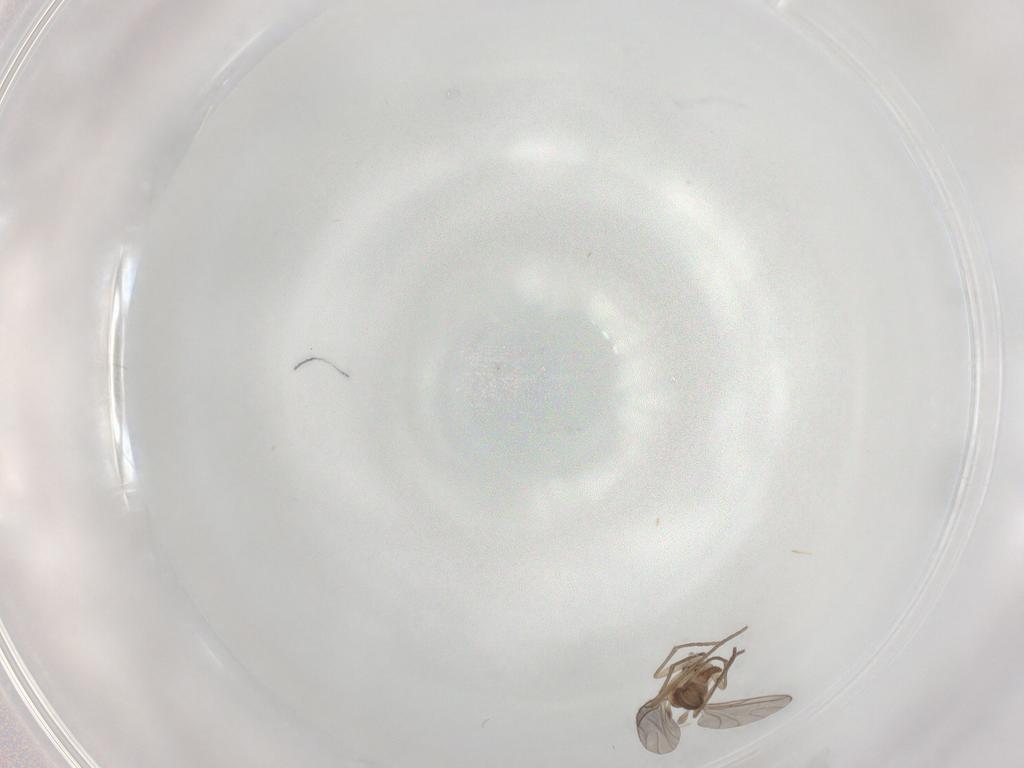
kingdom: Animalia
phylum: Arthropoda
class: Insecta
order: Diptera
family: Sciaridae
